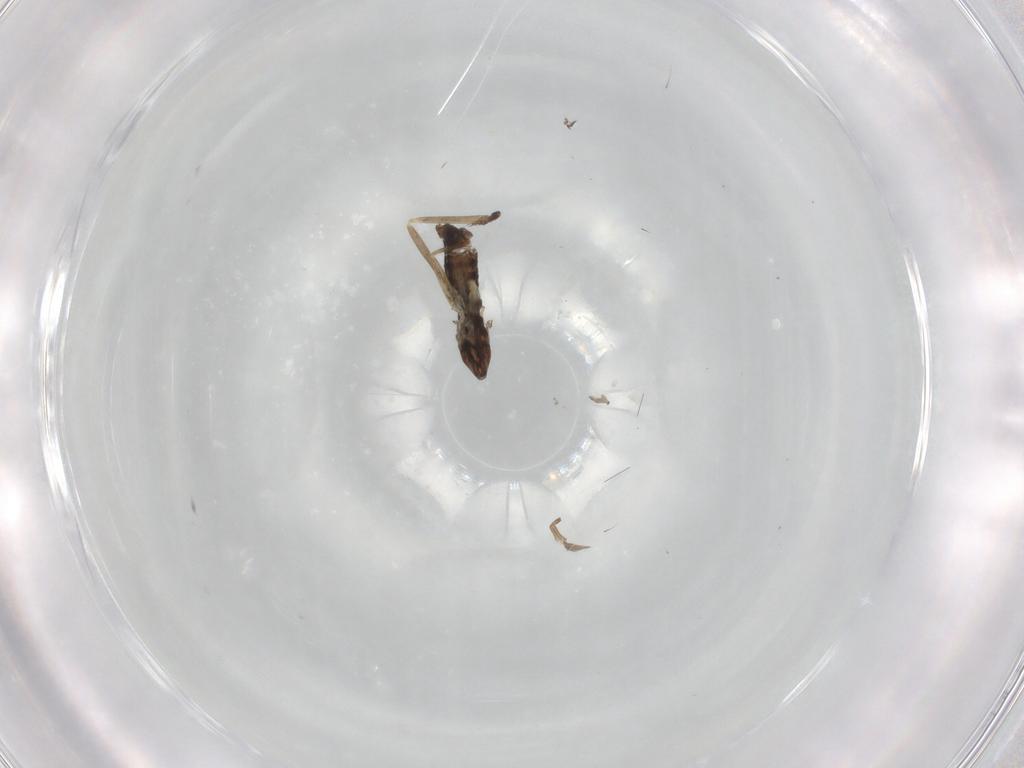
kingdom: Animalia
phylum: Arthropoda
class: Insecta
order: Diptera
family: Cecidomyiidae
